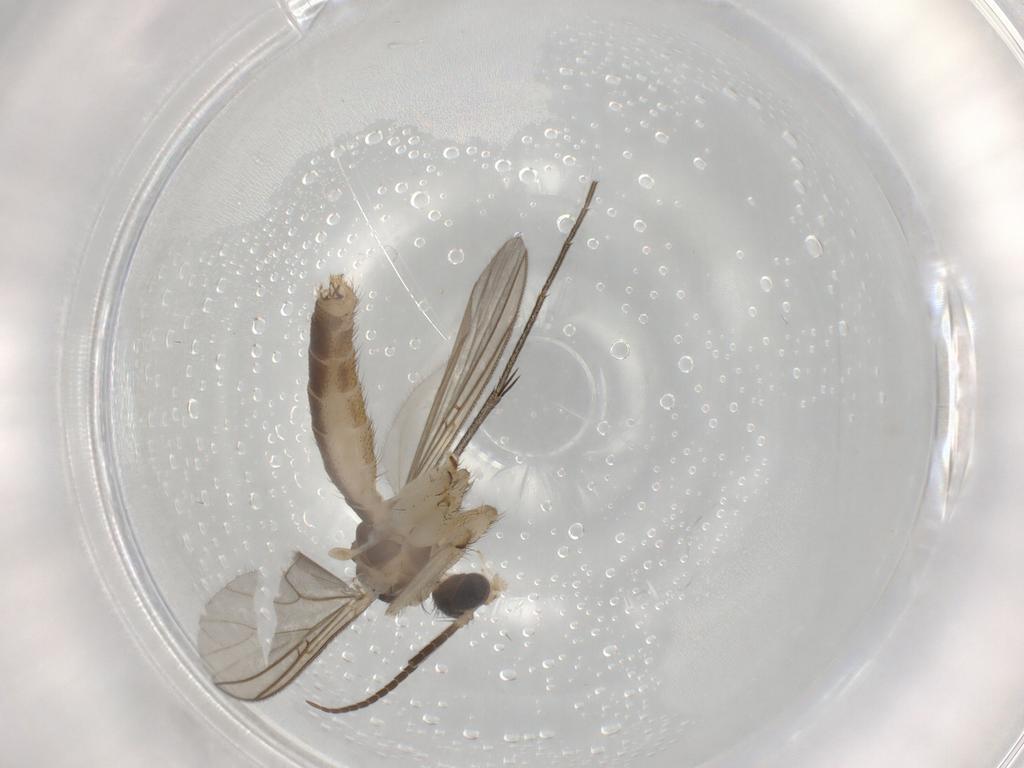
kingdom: Animalia
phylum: Arthropoda
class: Insecta
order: Diptera
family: Mycetophilidae
